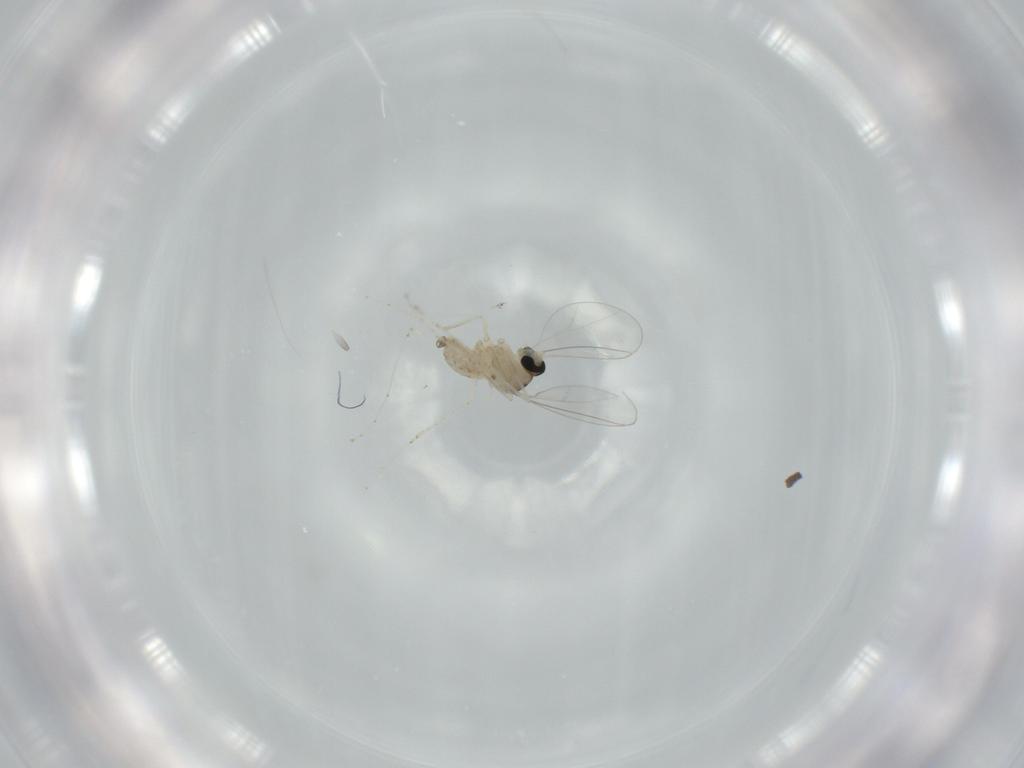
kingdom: Animalia
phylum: Arthropoda
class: Insecta
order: Diptera
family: Cecidomyiidae
